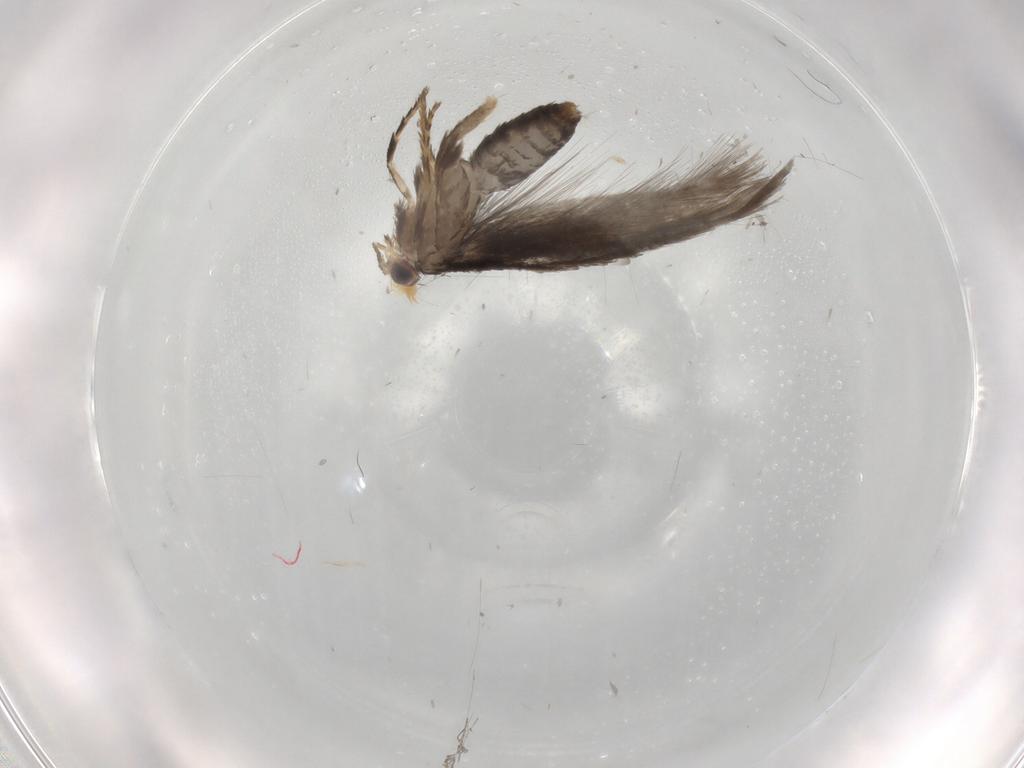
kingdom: Animalia
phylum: Arthropoda
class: Insecta
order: Lepidoptera
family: Nepticulidae
